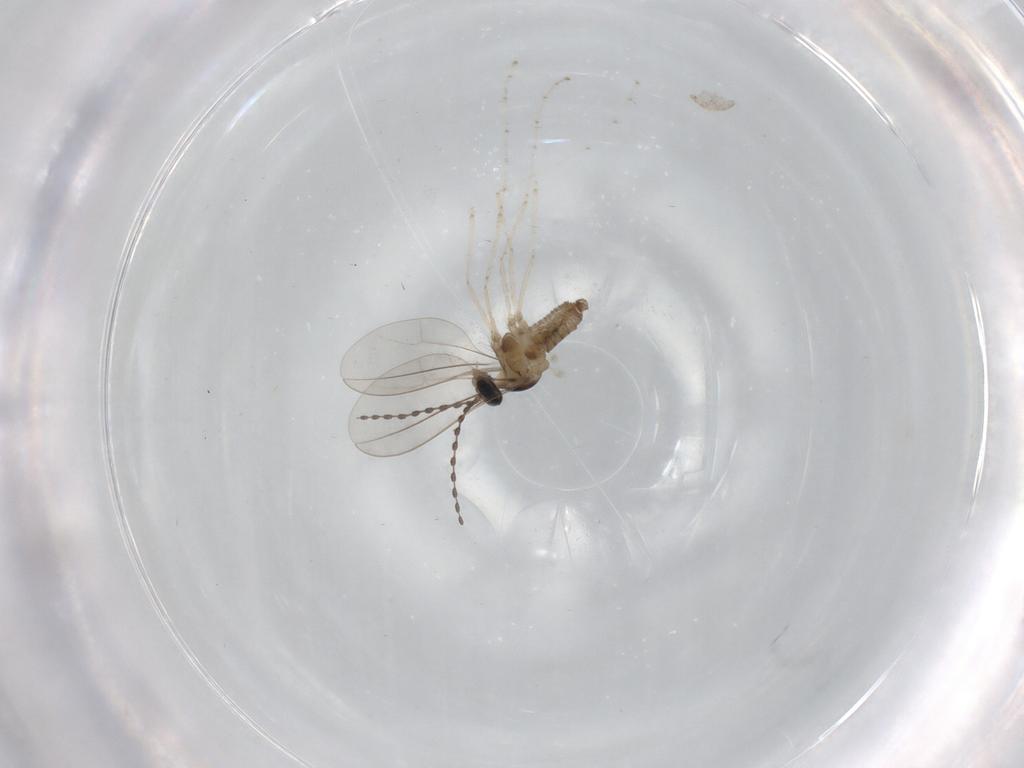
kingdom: Animalia
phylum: Arthropoda
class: Insecta
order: Diptera
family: Cecidomyiidae
